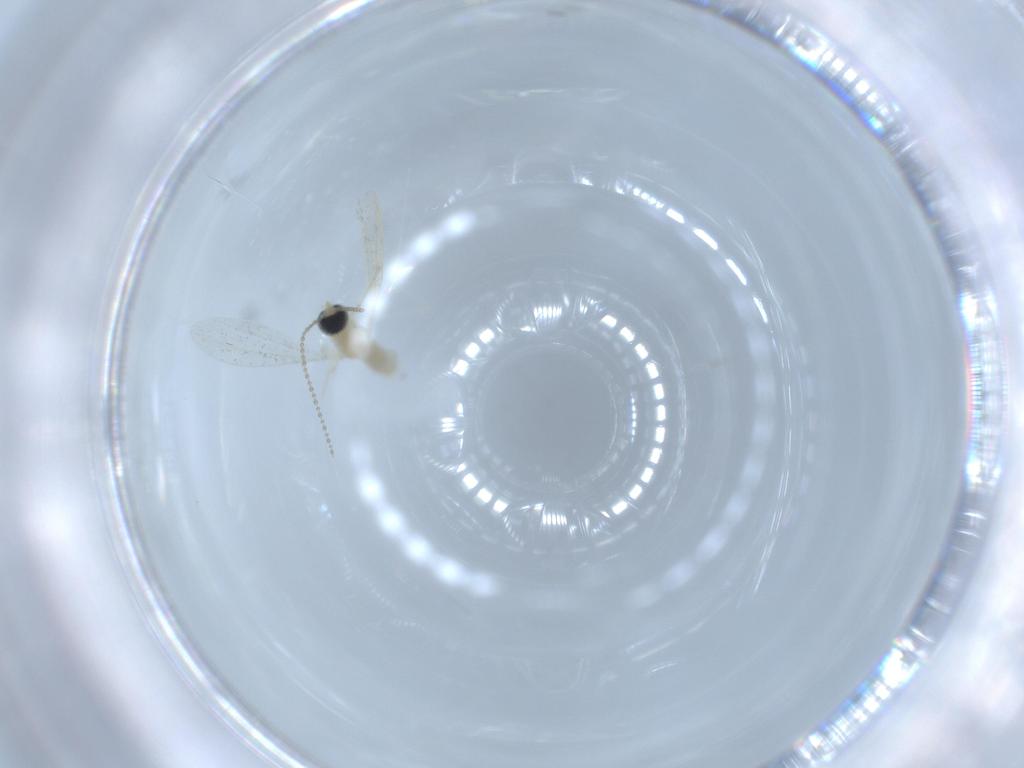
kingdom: Animalia
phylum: Arthropoda
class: Insecta
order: Diptera
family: Cecidomyiidae
